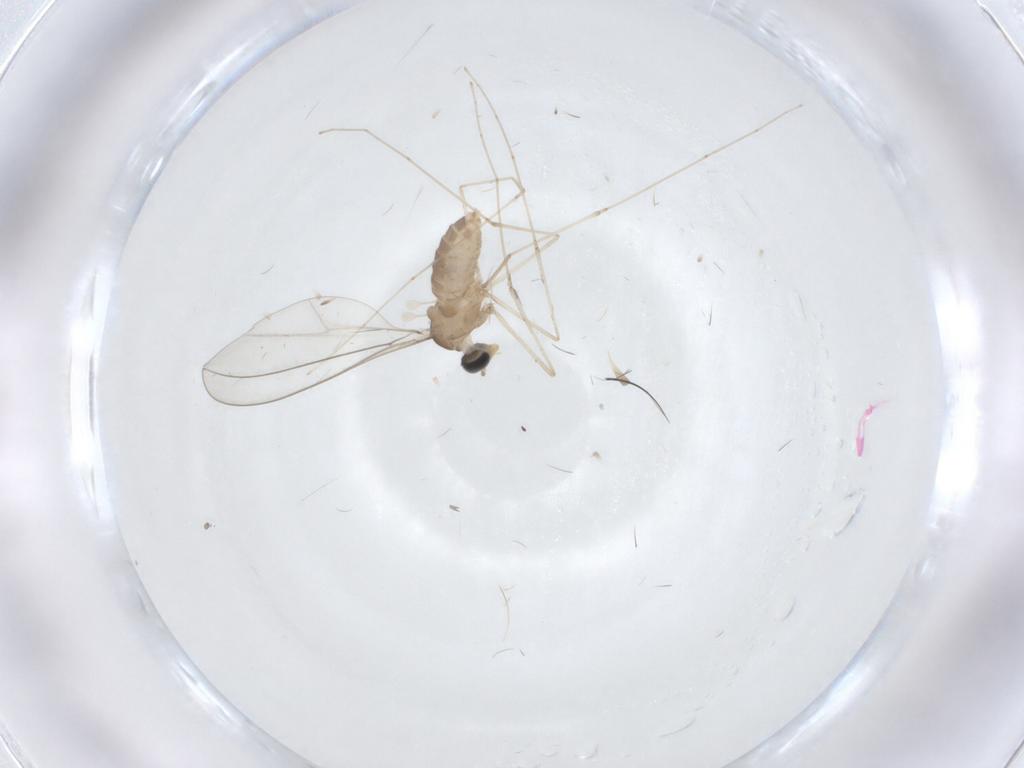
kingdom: Animalia
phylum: Arthropoda
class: Insecta
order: Diptera
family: Cecidomyiidae
